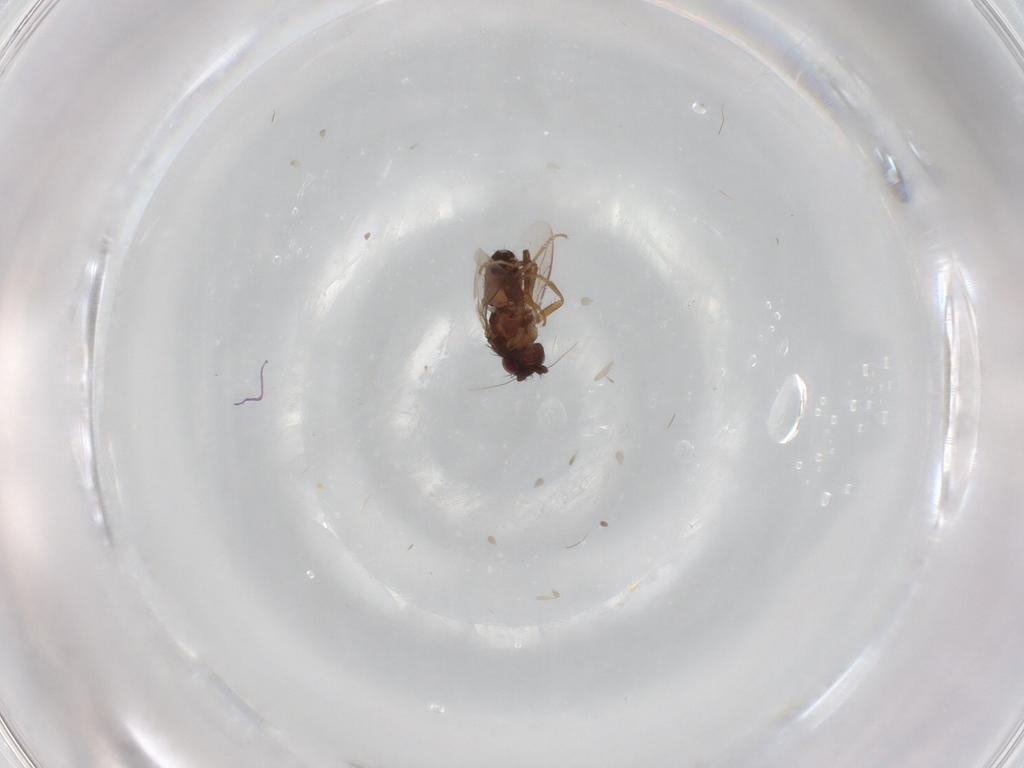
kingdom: Animalia
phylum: Arthropoda
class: Insecta
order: Diptera
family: Sphaeroceridae
